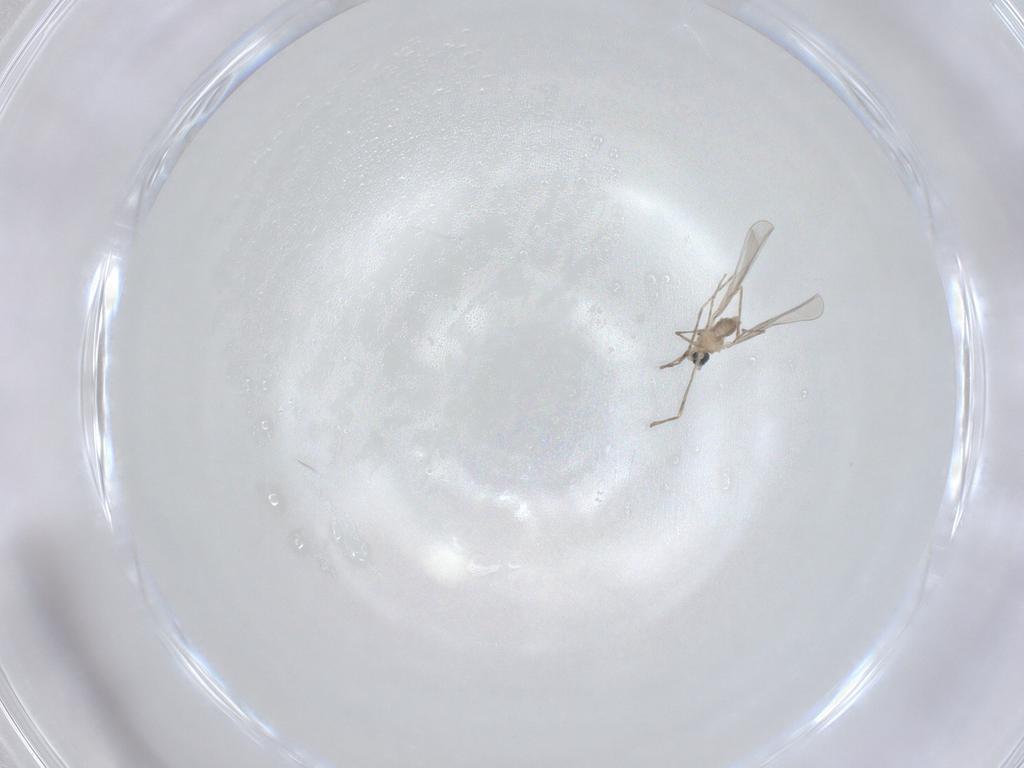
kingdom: Animalia
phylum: Arthropoda
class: Insecta
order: Diptera
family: Cecidomyiidae
